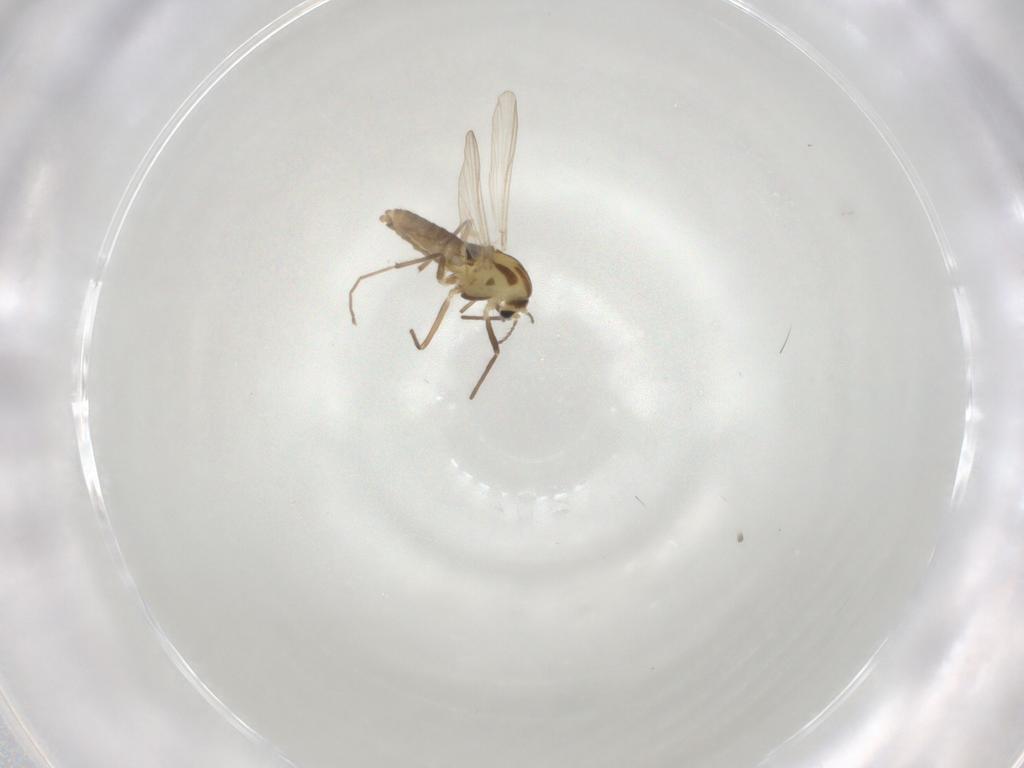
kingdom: Animalia
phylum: Arthropoda
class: Insecta
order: Diptera
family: Chironomidae
